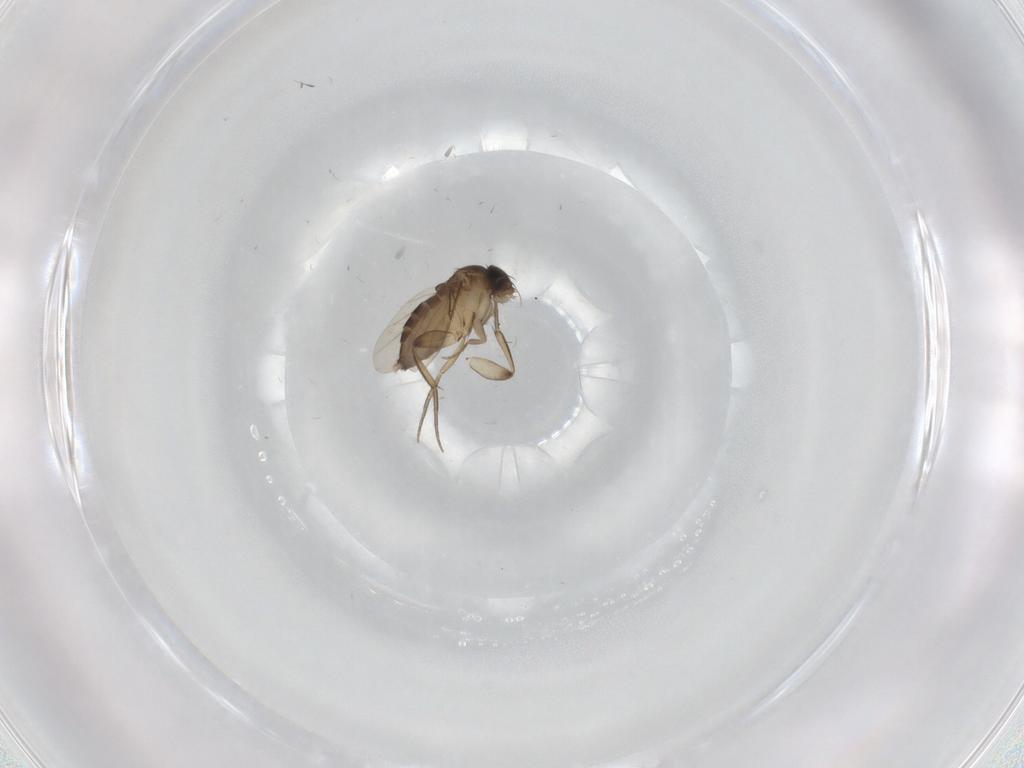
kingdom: Animalia
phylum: Arthropoda
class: Insecta
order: Diptera
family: Phoridae
